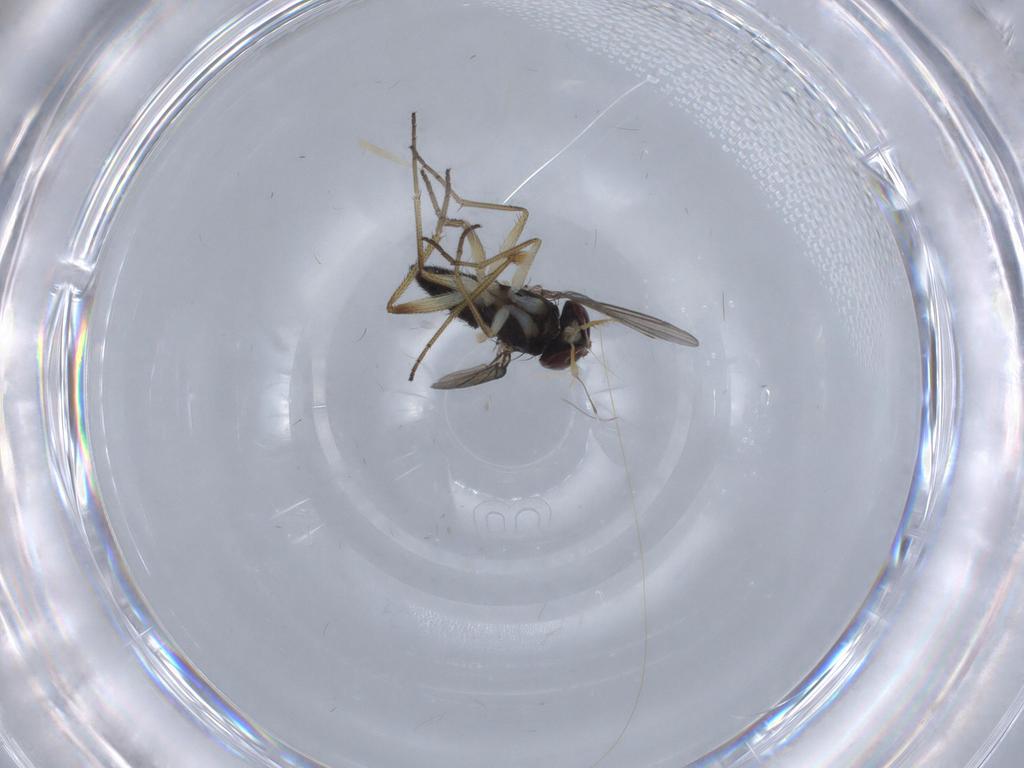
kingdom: Animalia
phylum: Arthropoda
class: Insecta
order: Diptera
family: Dolichopodidae
